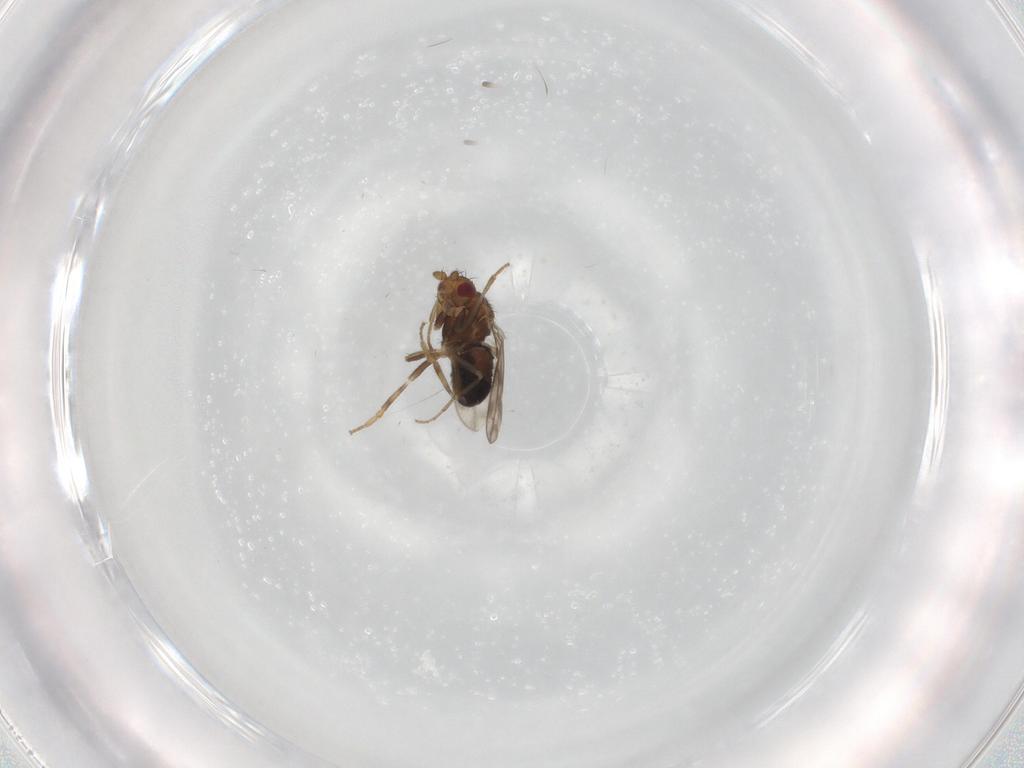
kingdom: Animalia
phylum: Arthropoda
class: Insecta
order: Diptera
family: Sphaeroceridae
